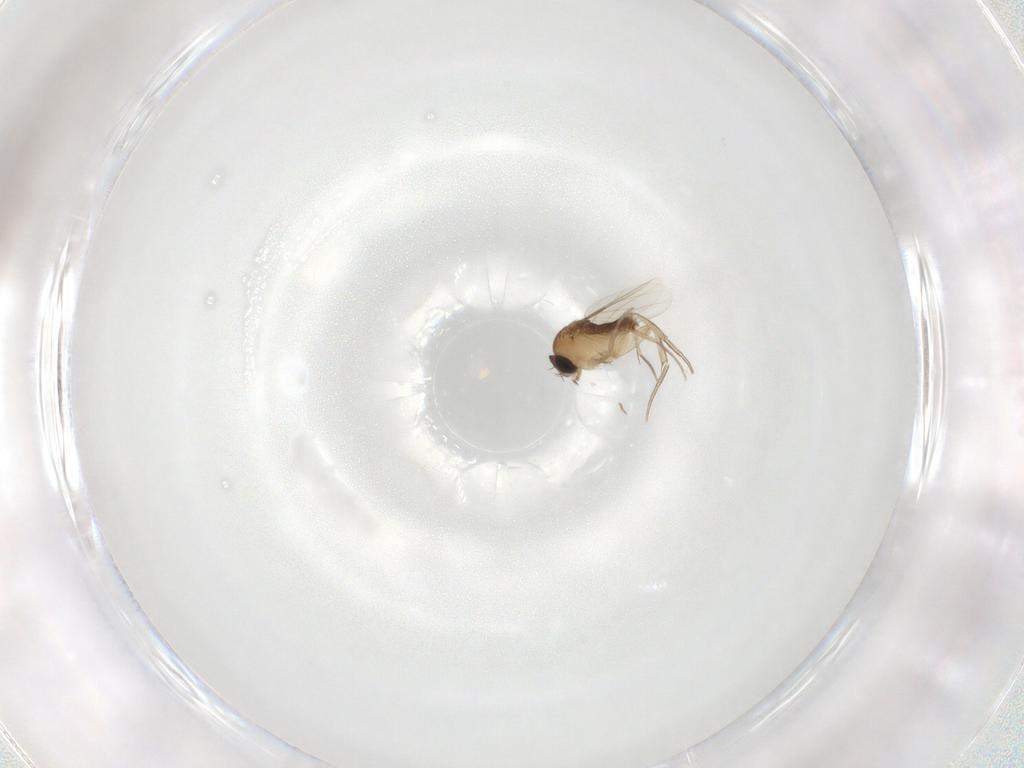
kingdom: Animalia
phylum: Arthropoda
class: Insecta
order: Diptera
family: Phoridae
